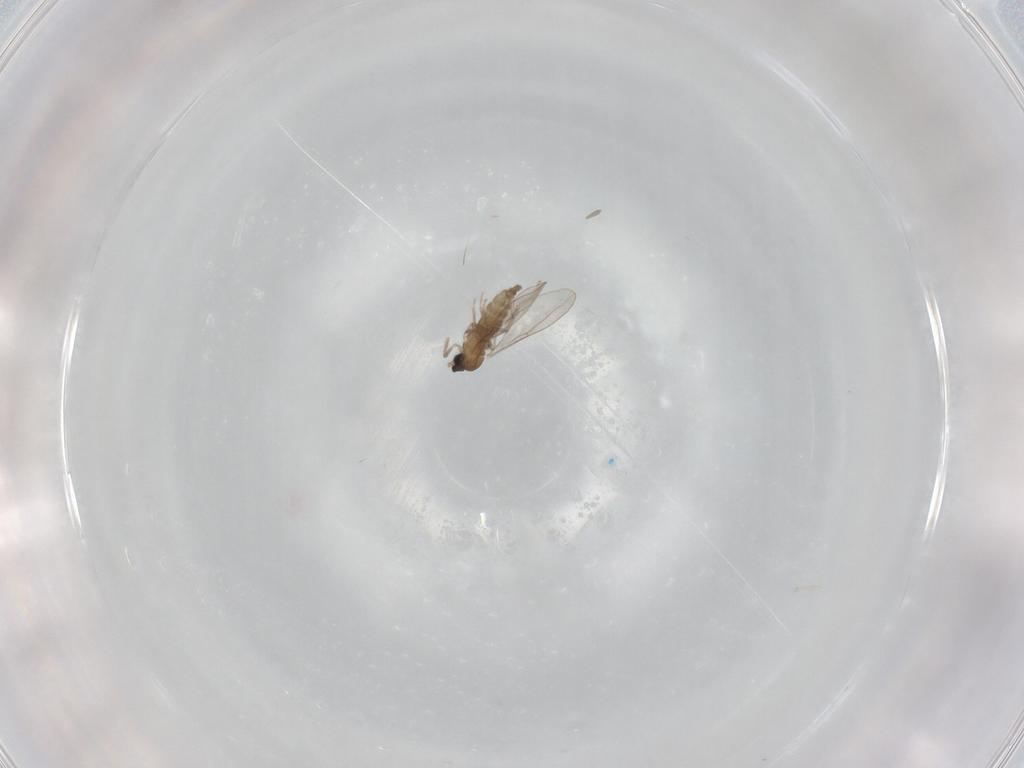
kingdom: Animalia
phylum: Arthropoda
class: Insecta
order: Diptera
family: Cecidomyiidae
